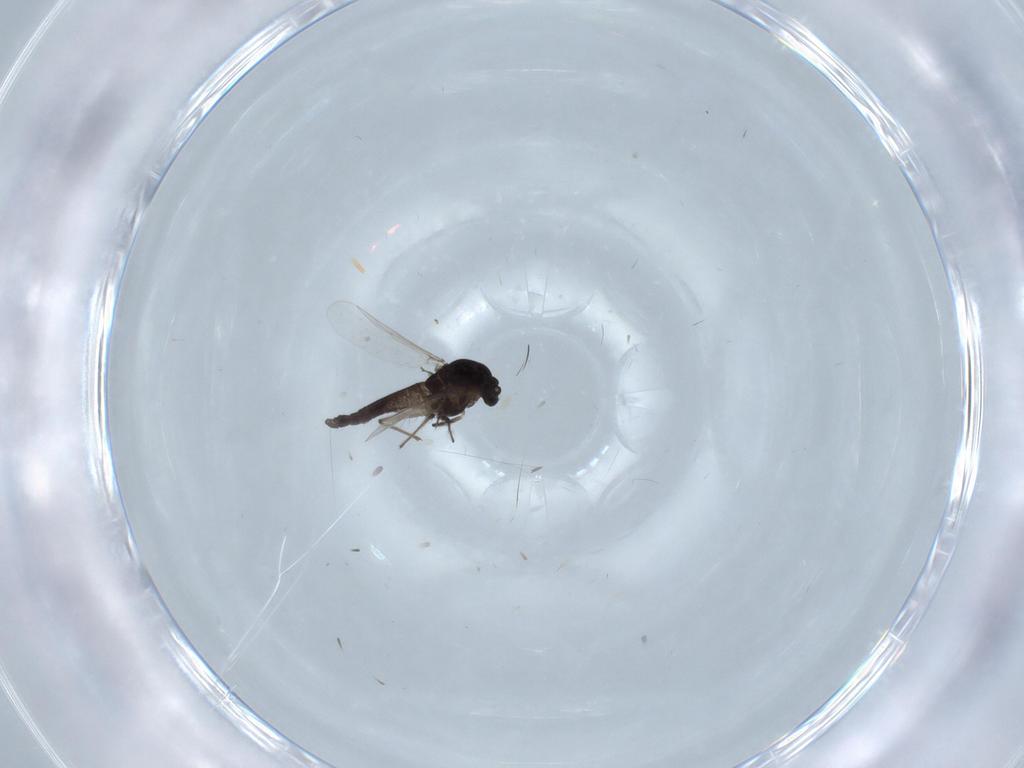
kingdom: Animalia
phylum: Arthropoda
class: Insecta
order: Diptera
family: Chironomidae
